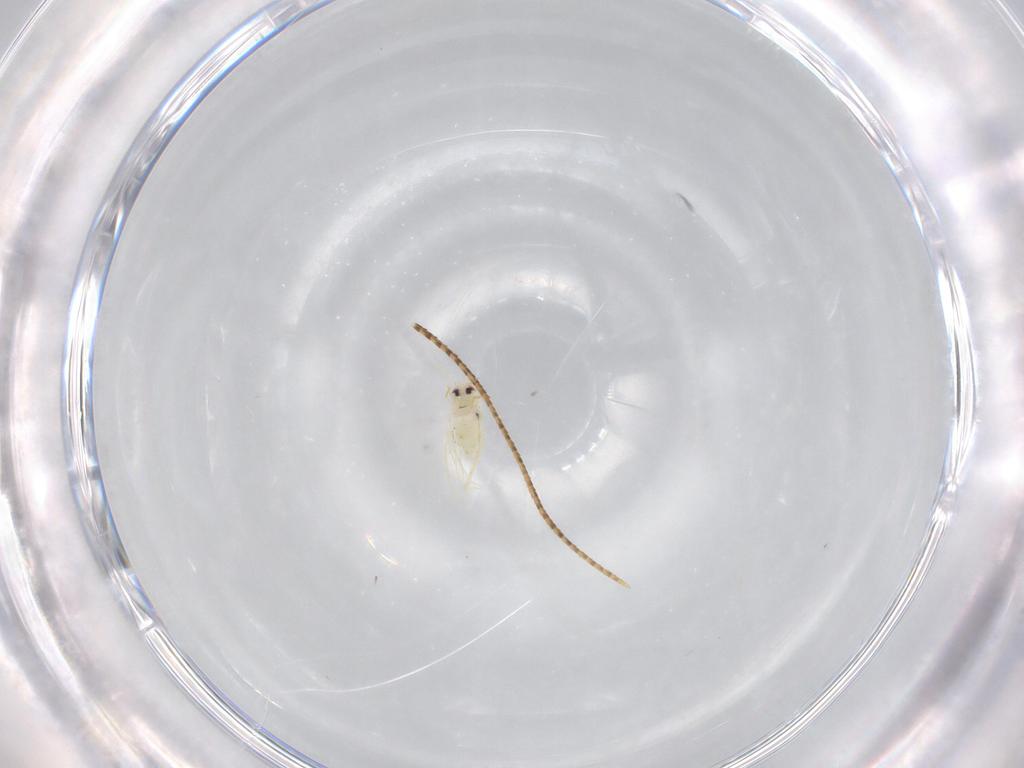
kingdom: Animalia
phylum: Arthropoda
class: Insecta
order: Hemiptera
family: Aleyrodidae
